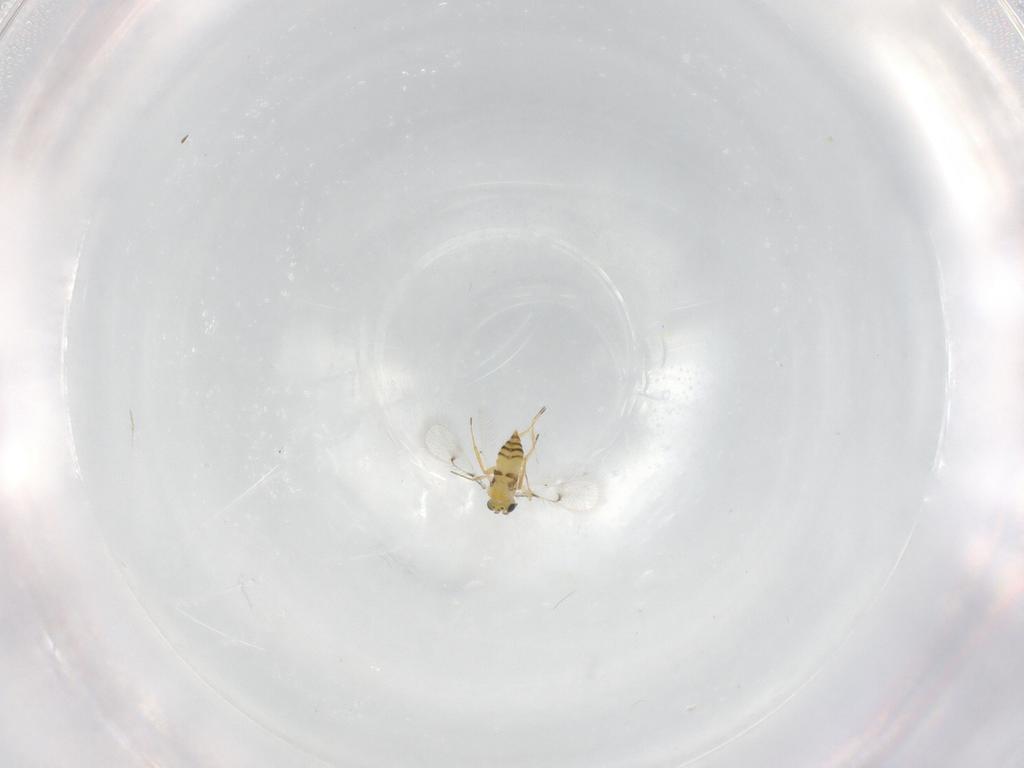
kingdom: Animalia
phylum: Arthropoda
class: Insecta
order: Hymenoptera
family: Trichogrammatidae
